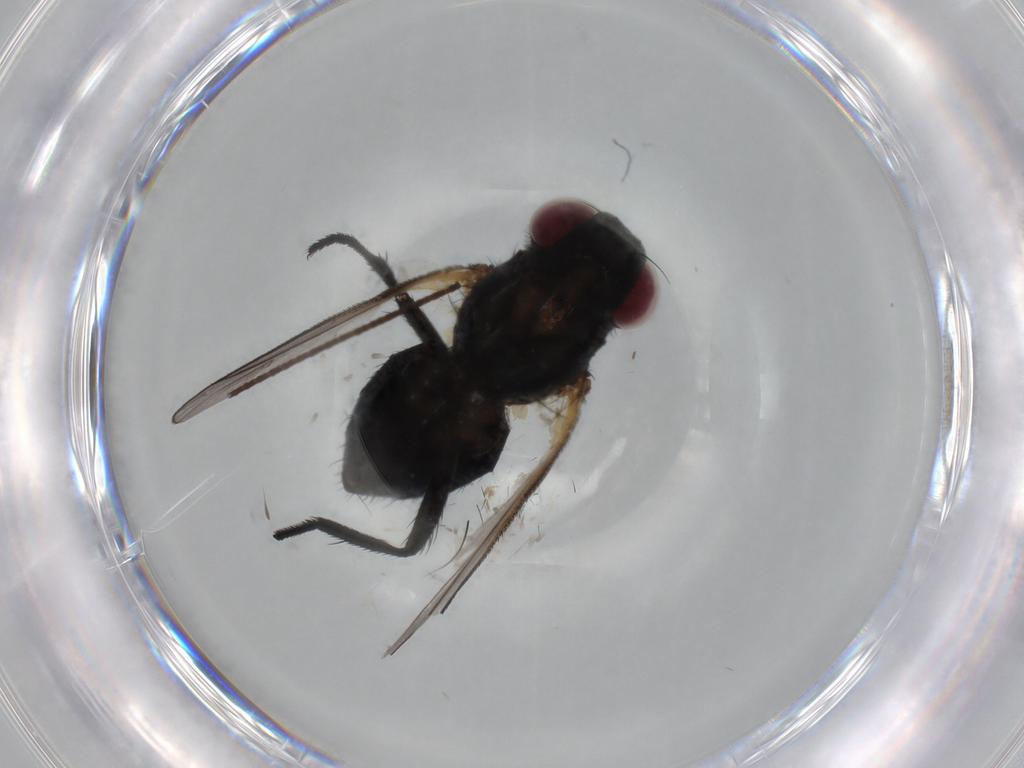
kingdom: Animalia
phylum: Arthropoda
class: Insecta
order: Diptera
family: Fannia
